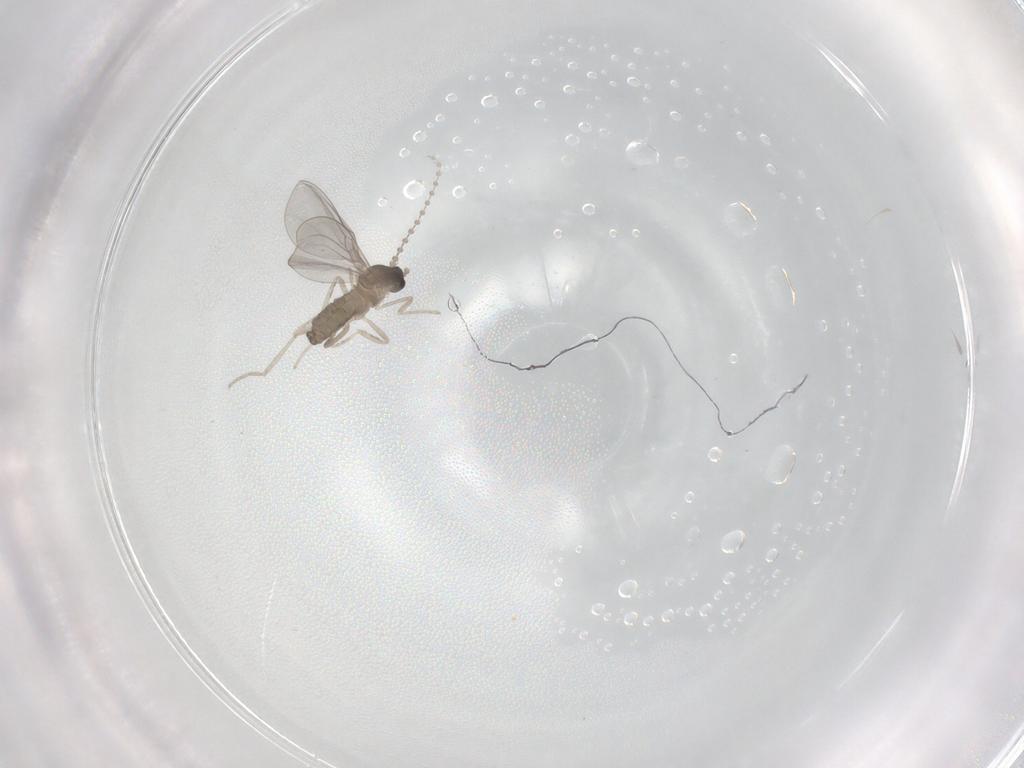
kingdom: Animalia
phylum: Arthropoda
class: Insecta
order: Diptera
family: Cecidomyiidae
